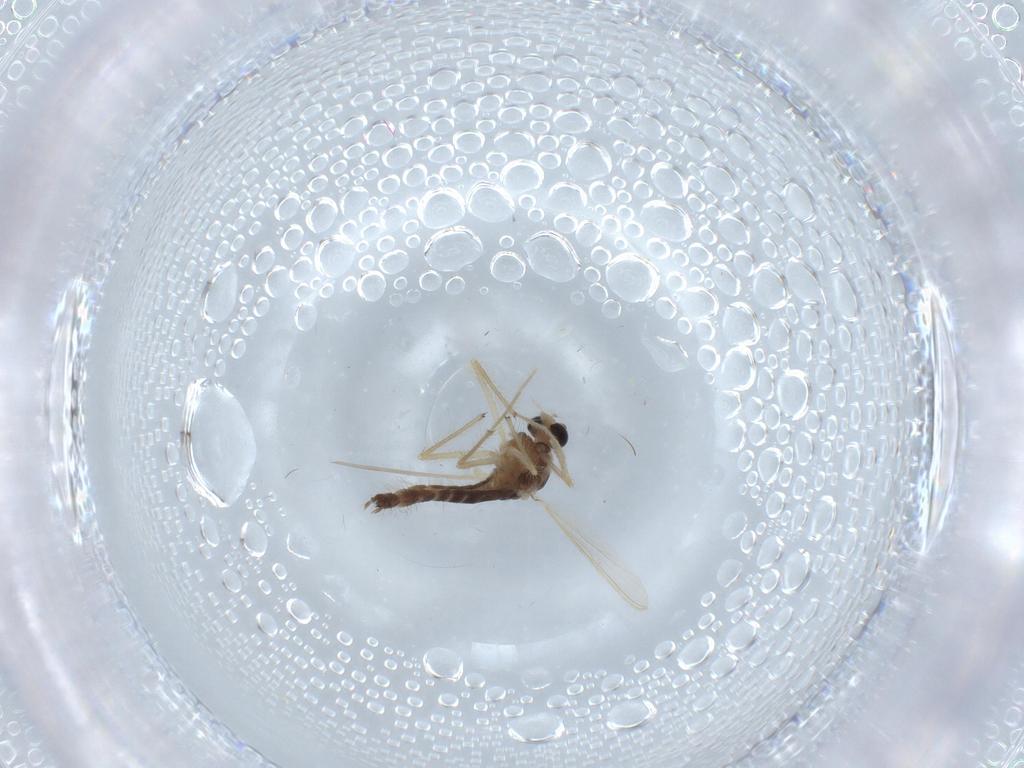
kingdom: Animalia
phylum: Arthropoda
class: Insecta
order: Diptera
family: Chironomidae
